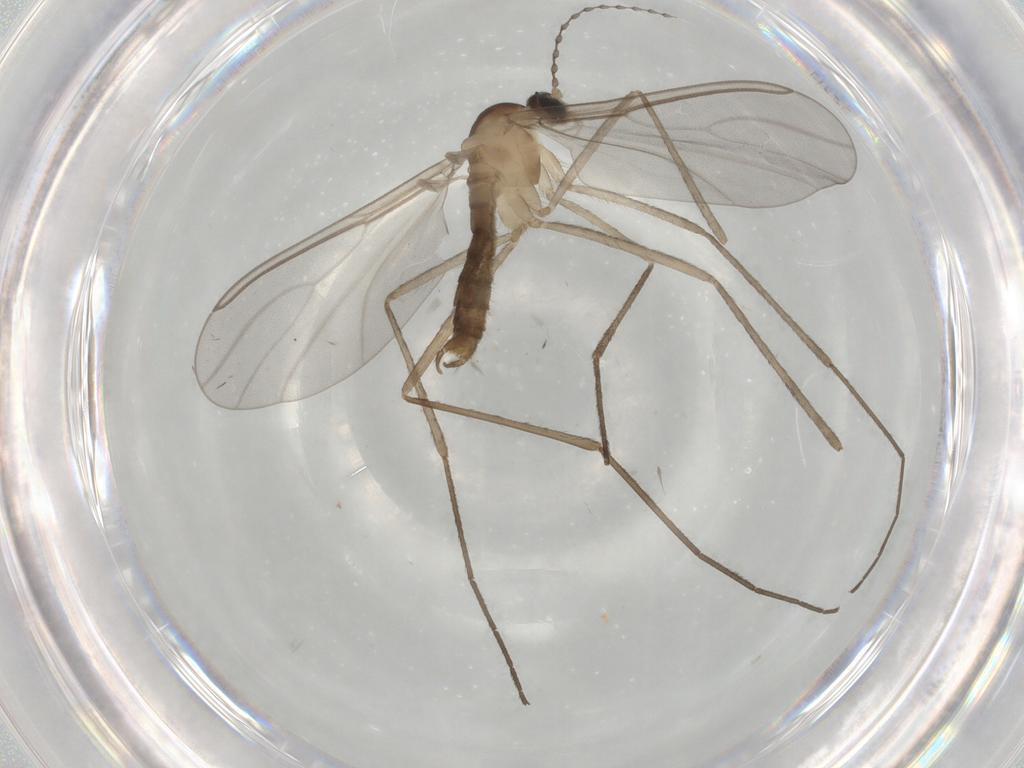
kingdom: Animalia
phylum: Arthropoda
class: Insecta
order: Diptera
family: Cecidomyiidae
